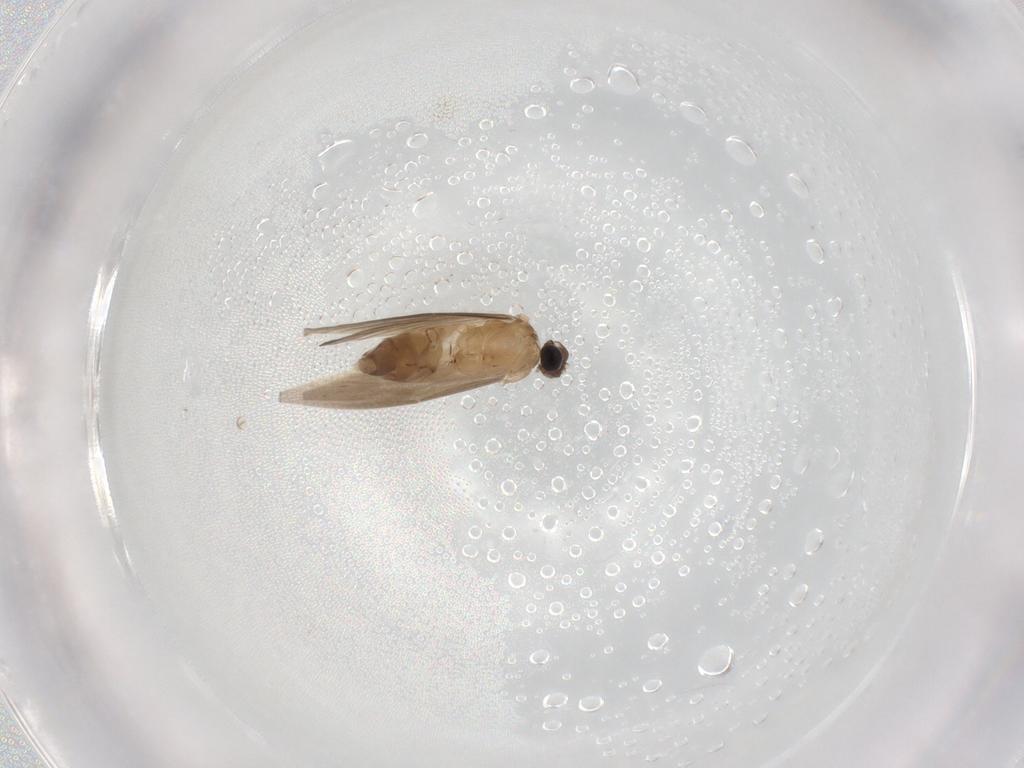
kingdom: Animalia
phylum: Arthropoda
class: Insecta
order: Trichoptera
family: Hydroptilidae
